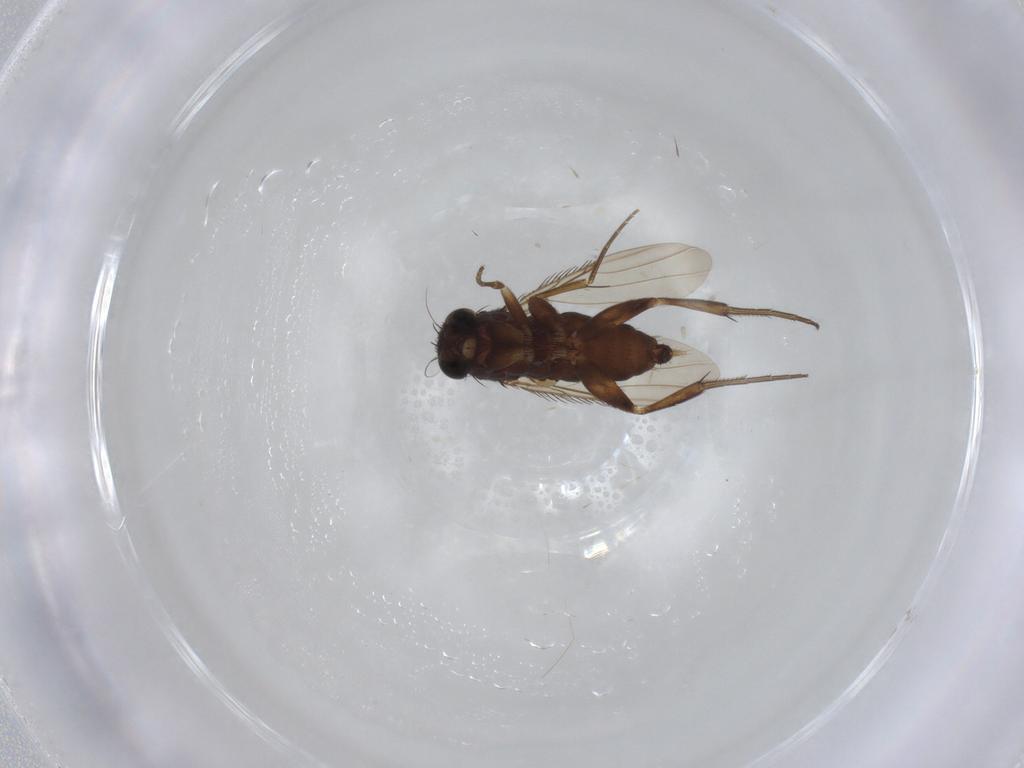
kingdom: Animalia
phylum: Arthropoda
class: Insecta
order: Diptera
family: Phoridae
